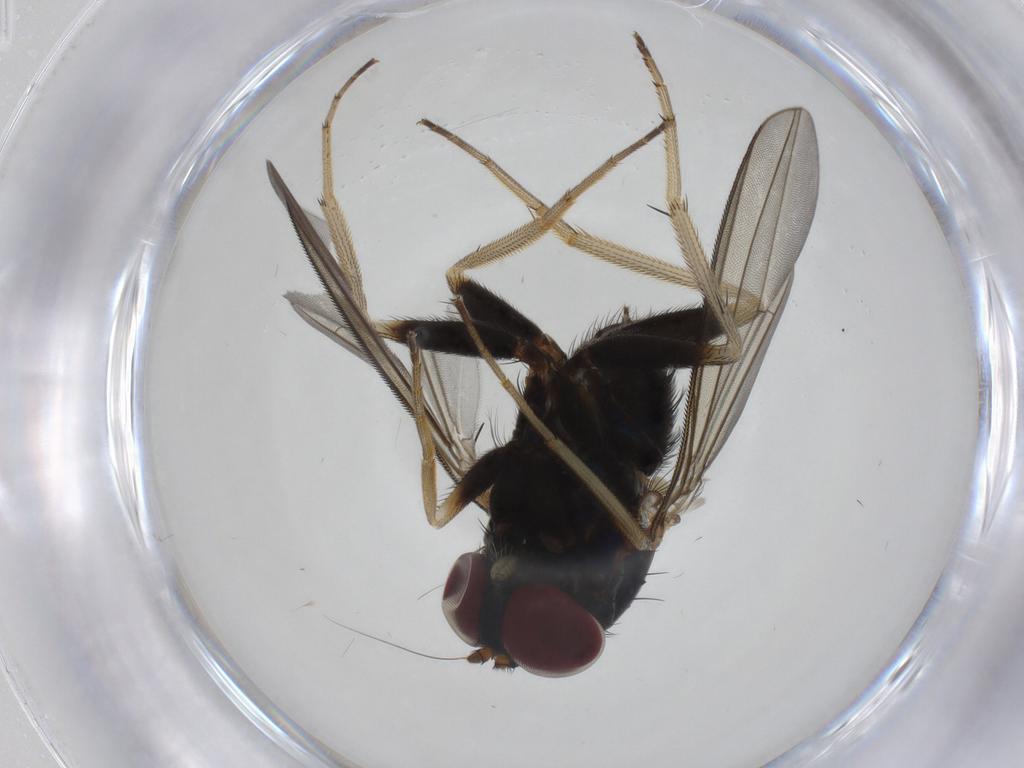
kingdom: Animalia
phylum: Arthropoda
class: Insecta
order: Diptera
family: Dolichopodidae
